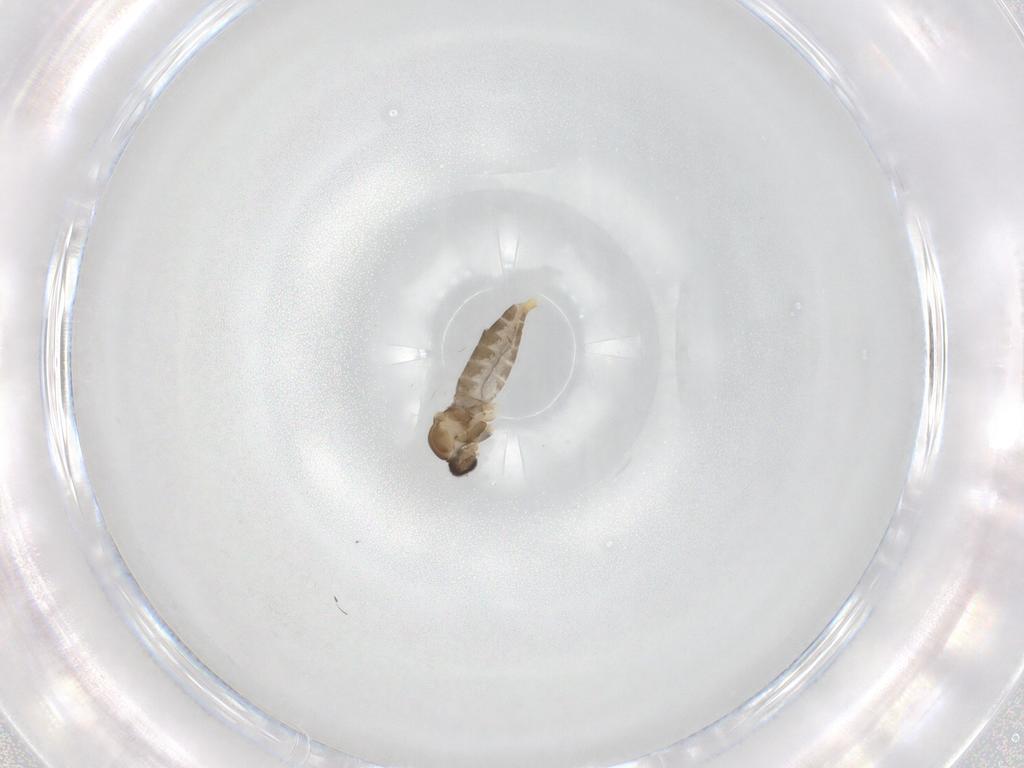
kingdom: Animalia
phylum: Arthropoda
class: Insecta
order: Diptera
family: Cecidomyiidae
